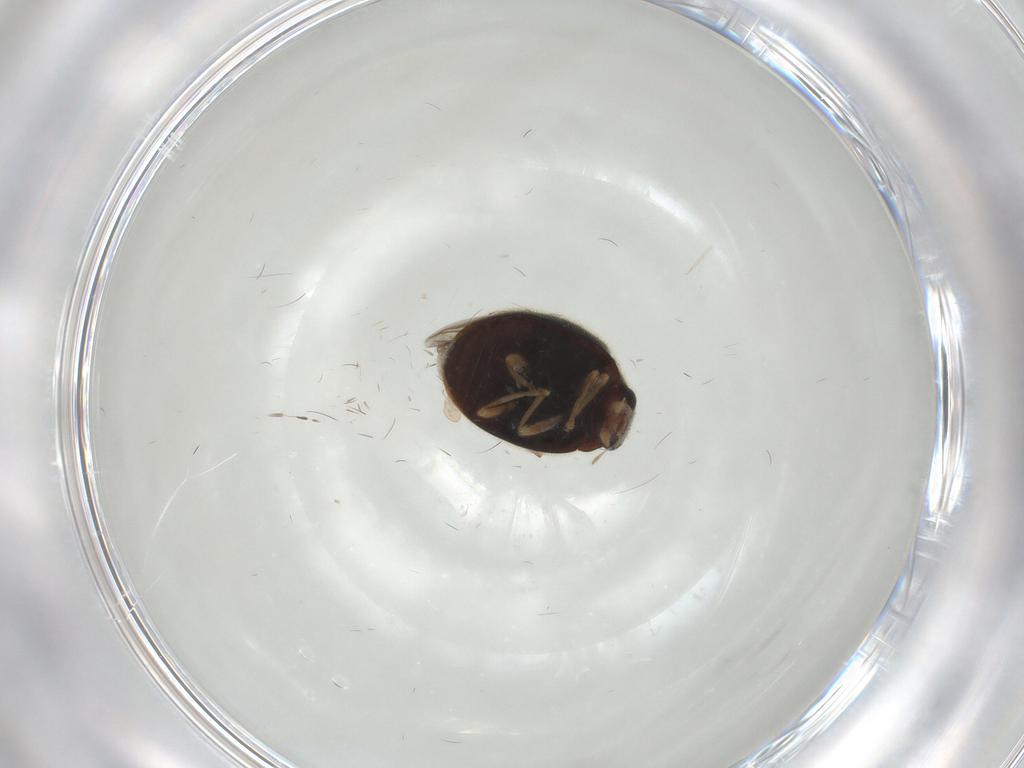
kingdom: Animalia
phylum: Arthropoda
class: Insecta
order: Coleoptera
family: Coccinellidae
